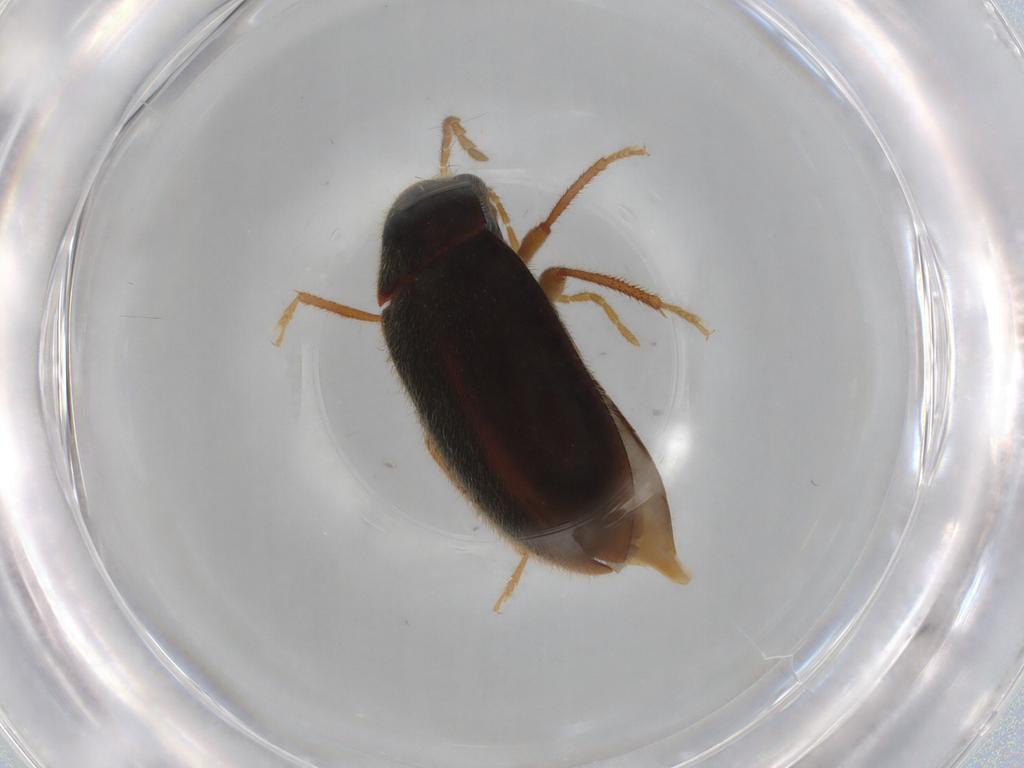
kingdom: Animalia
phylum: Arthropoda
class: Insecta
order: Coleoptera
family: Ptilodactylidae
